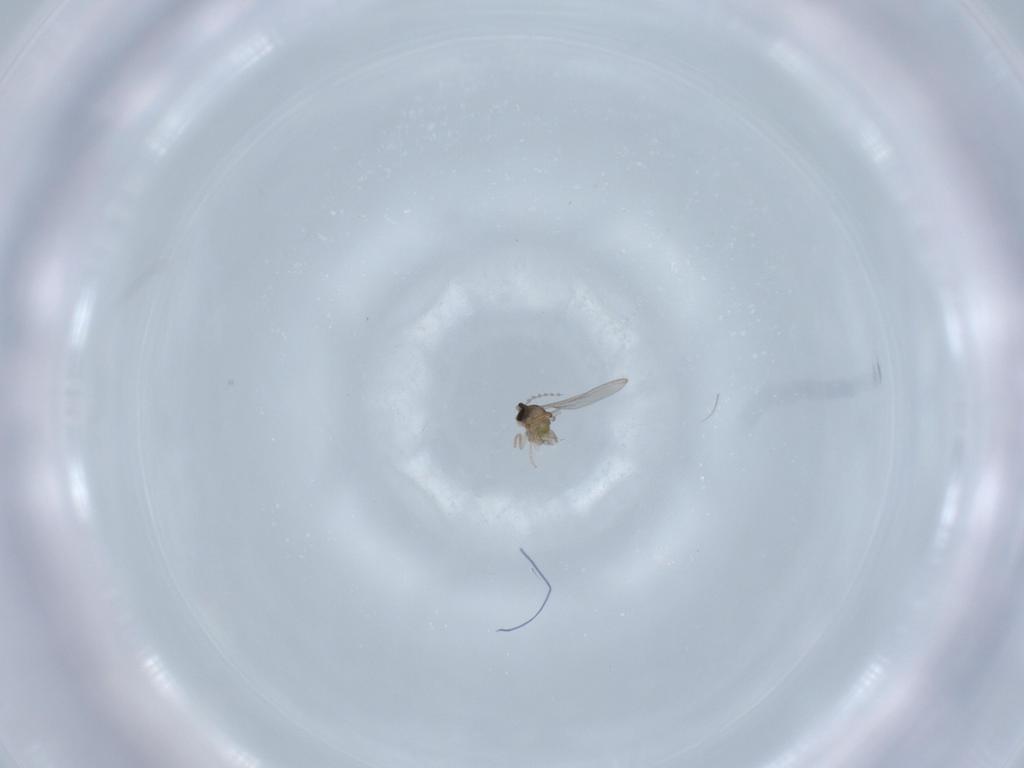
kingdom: Animalia
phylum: Arthropoda
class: Insecta
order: Diptera
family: Cecidomyiidae
